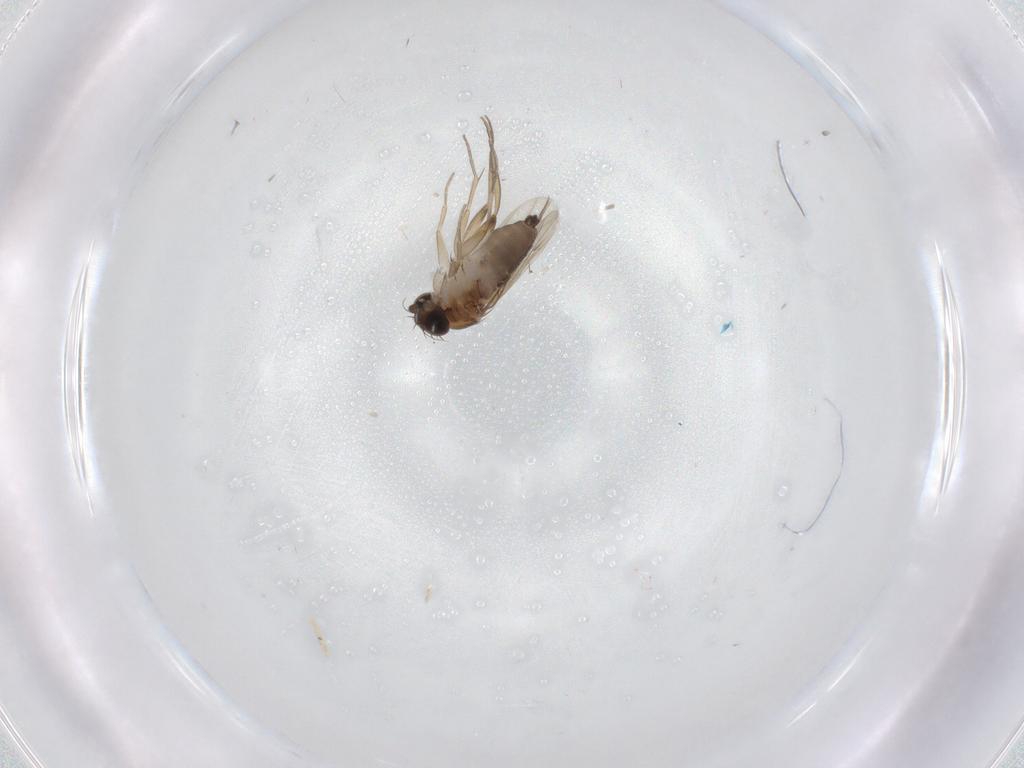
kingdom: Animalia
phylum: Arthropoda
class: Insecta
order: Diptera
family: Phoridae
